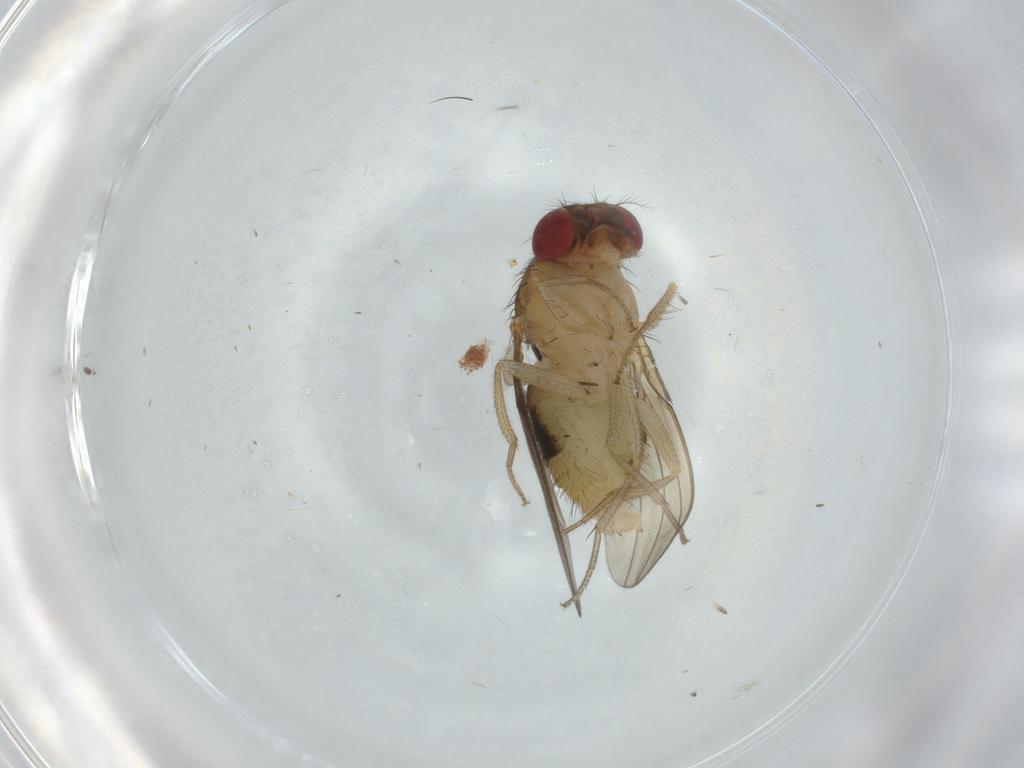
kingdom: Animalia
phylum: Arthropoda
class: Insecta
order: Diptera
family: Drosophilidae
